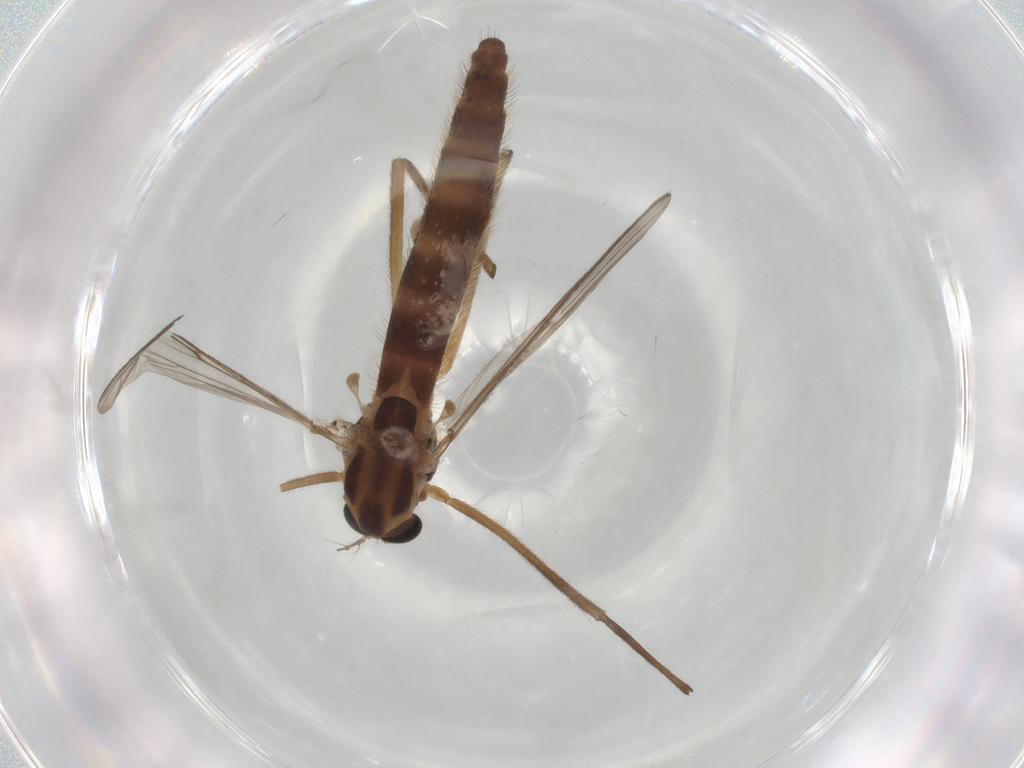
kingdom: Animalia
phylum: Arthropoda
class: Insecta
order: Diptera
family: Chironomidae
